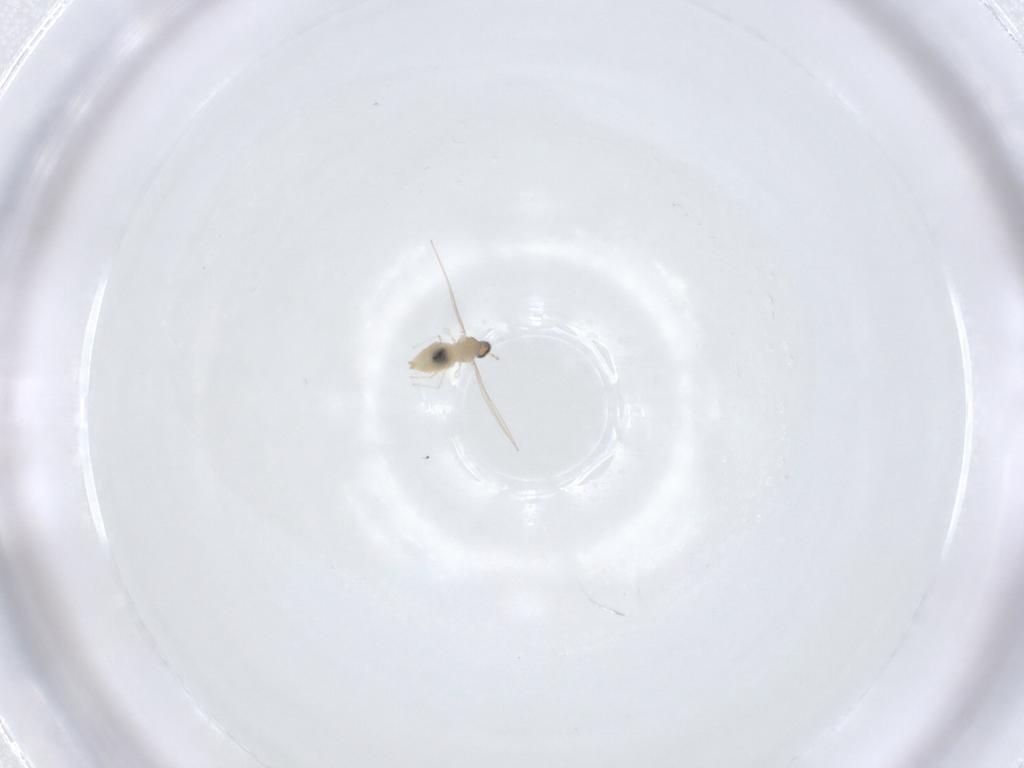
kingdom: Animalia
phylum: Arthropoda
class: Insecta
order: Diptera
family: Cecidomyiidae
